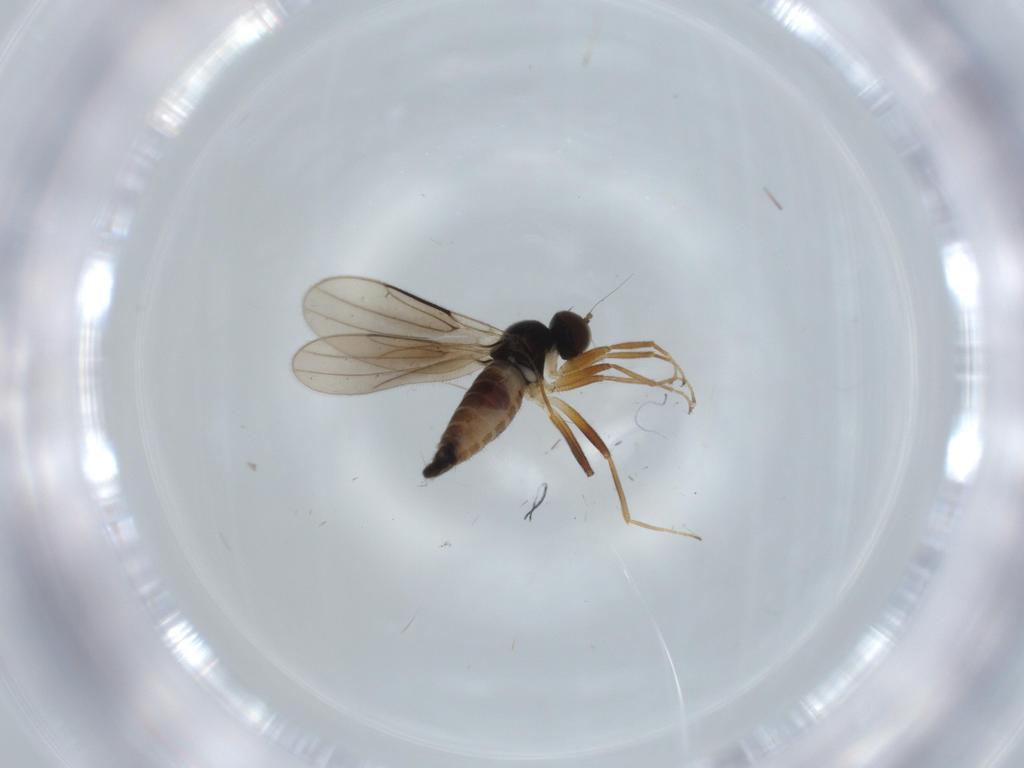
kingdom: Animalia
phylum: Arthropoda
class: Insecta
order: Diptera
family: Hybotidae
